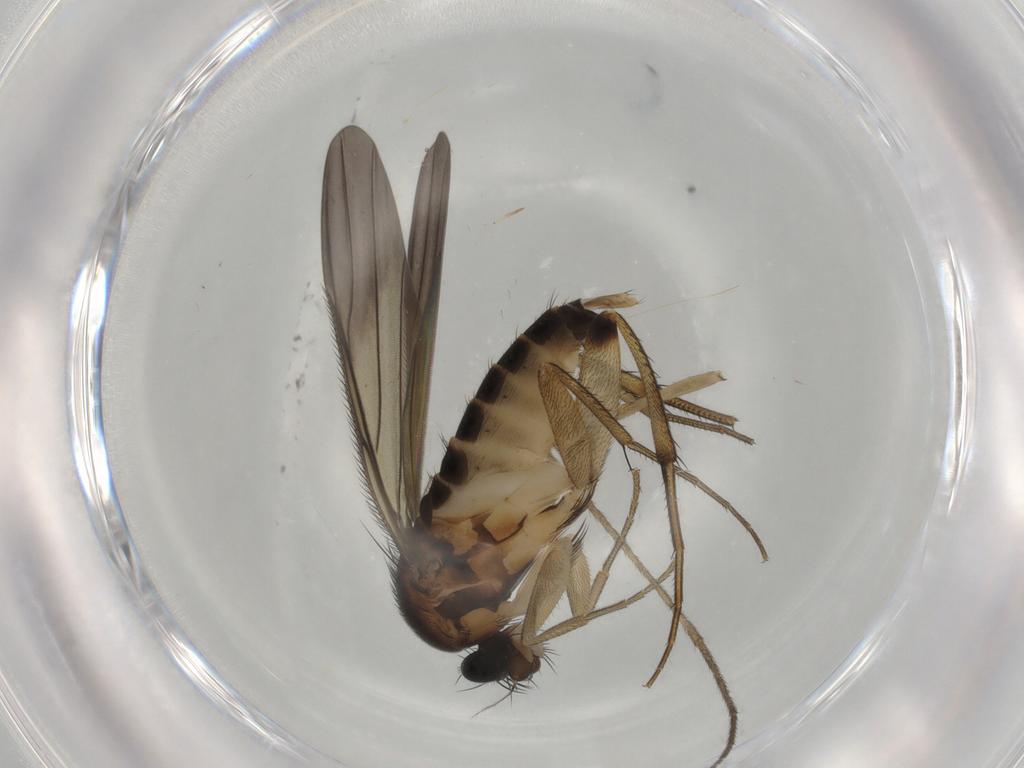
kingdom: Animalia
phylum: Arthropoda
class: Insecta
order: Diptera
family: Phoridae
